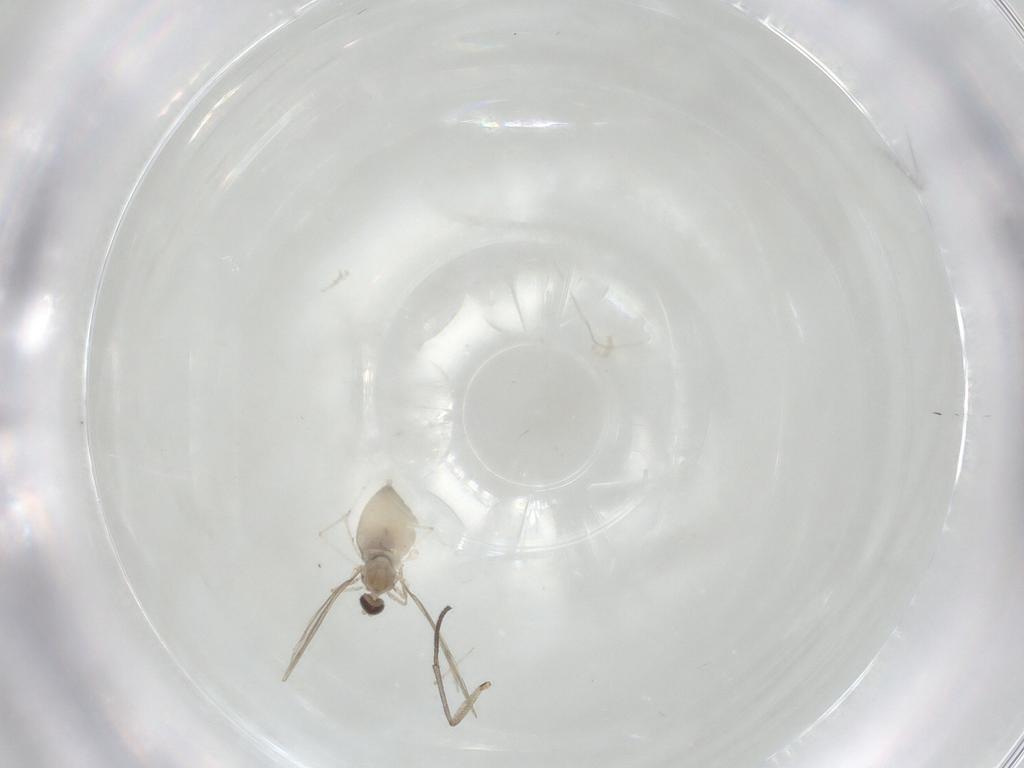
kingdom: Animalia
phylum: Arthropoda
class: Insecta
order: Diptera
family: Cecidomyiidae
